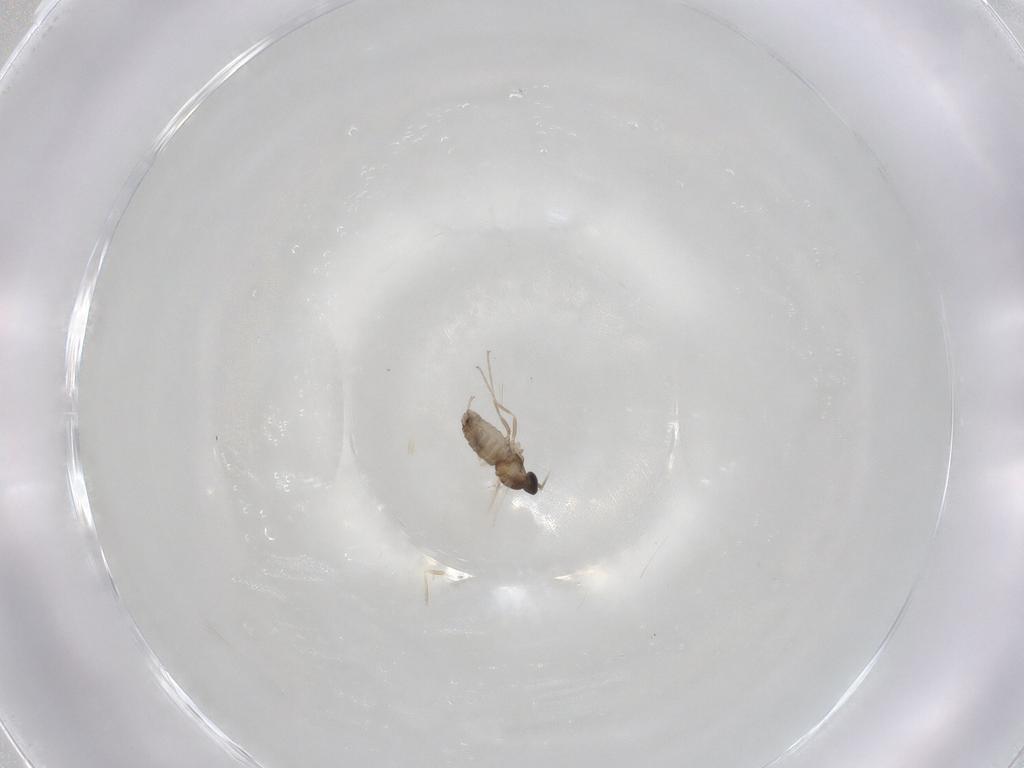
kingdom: Animalia
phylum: Arthropoda
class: Insecta
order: Diptera
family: Cecidomyiidae
